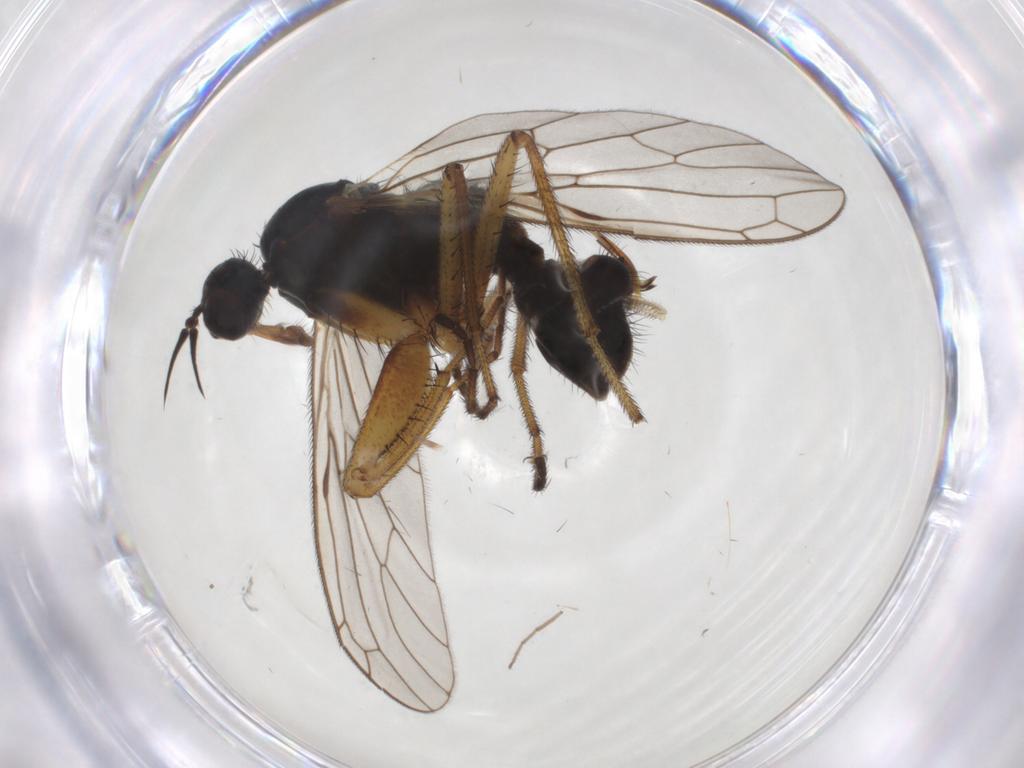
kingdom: Animalia
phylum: Arthropoda
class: Insecta
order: Diptera
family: Empididae
